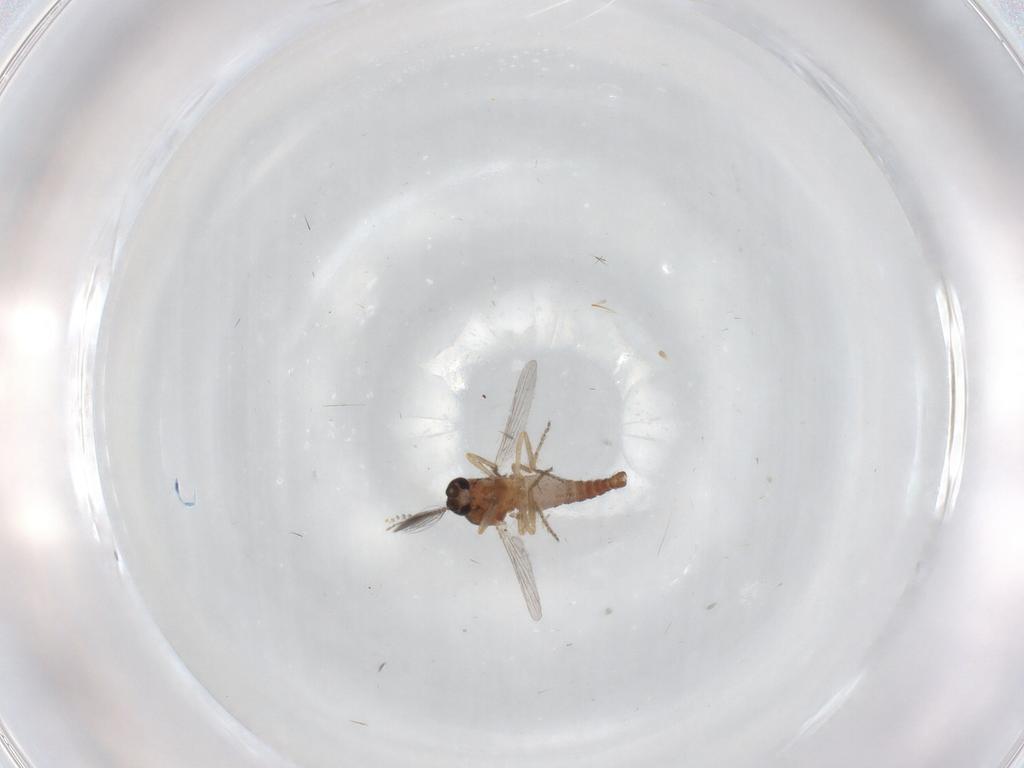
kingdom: Animalia
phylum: Arthropoda
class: Insecta
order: Diptera
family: Ceratopogonidae
